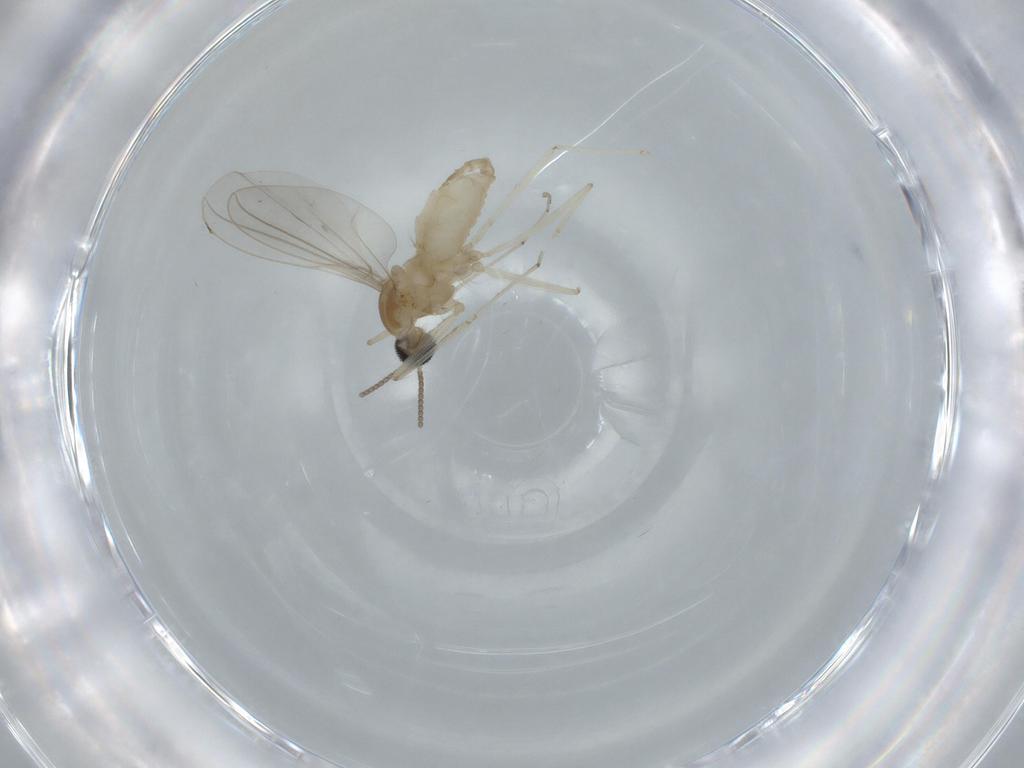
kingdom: Animalia
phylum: Arthropoda
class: Insecta
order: Diptera
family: Cecidomyiidae
